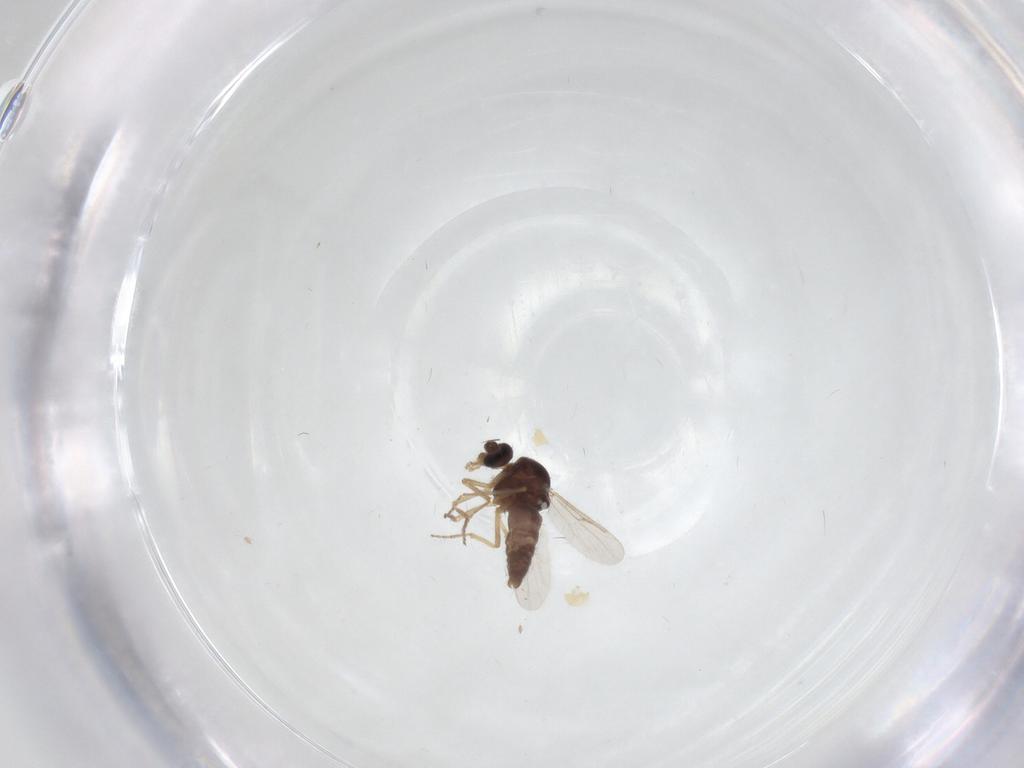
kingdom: Animalia
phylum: Arthropoda
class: Insecta
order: Diptera
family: Ceratopogonidae
